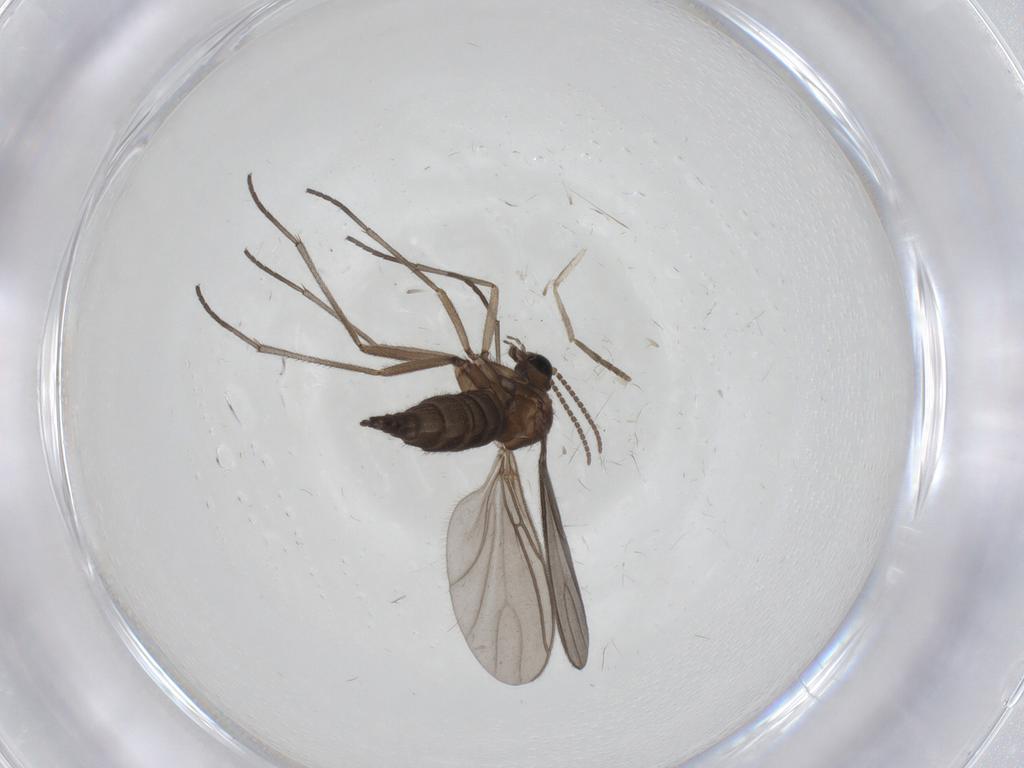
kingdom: Animalia
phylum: Arthropoda
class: Insecta
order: Diptera
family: Sciaridae
